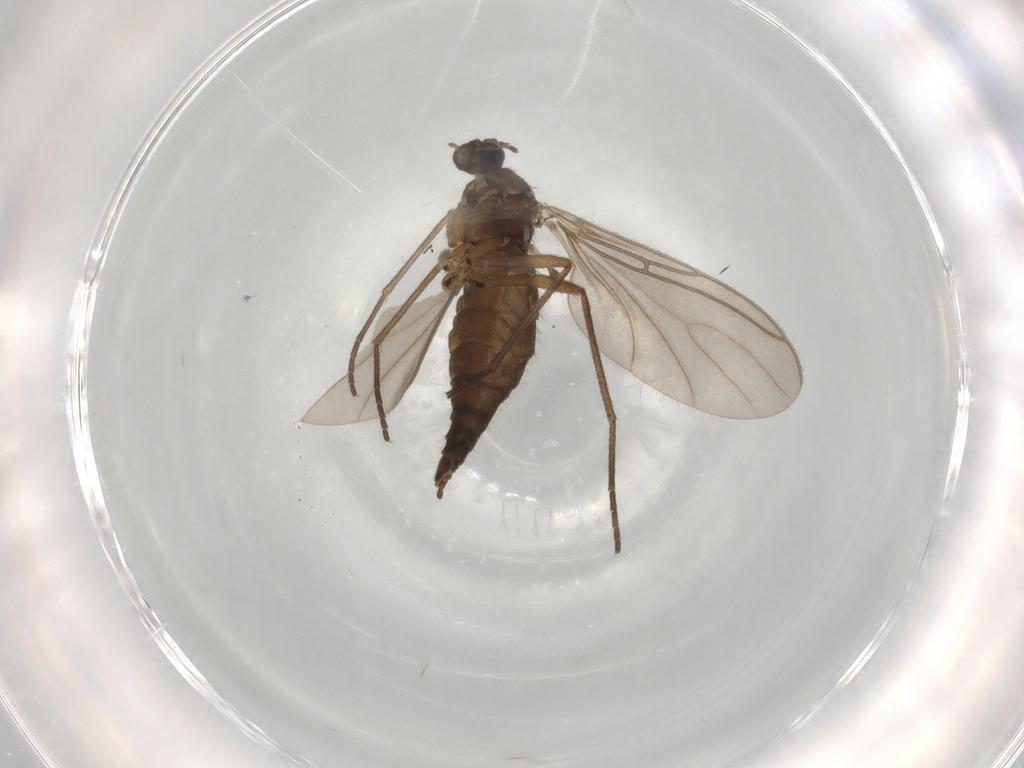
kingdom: Animalia
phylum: Arthropoda
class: Insecta
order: Diptera
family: Sciaridae
